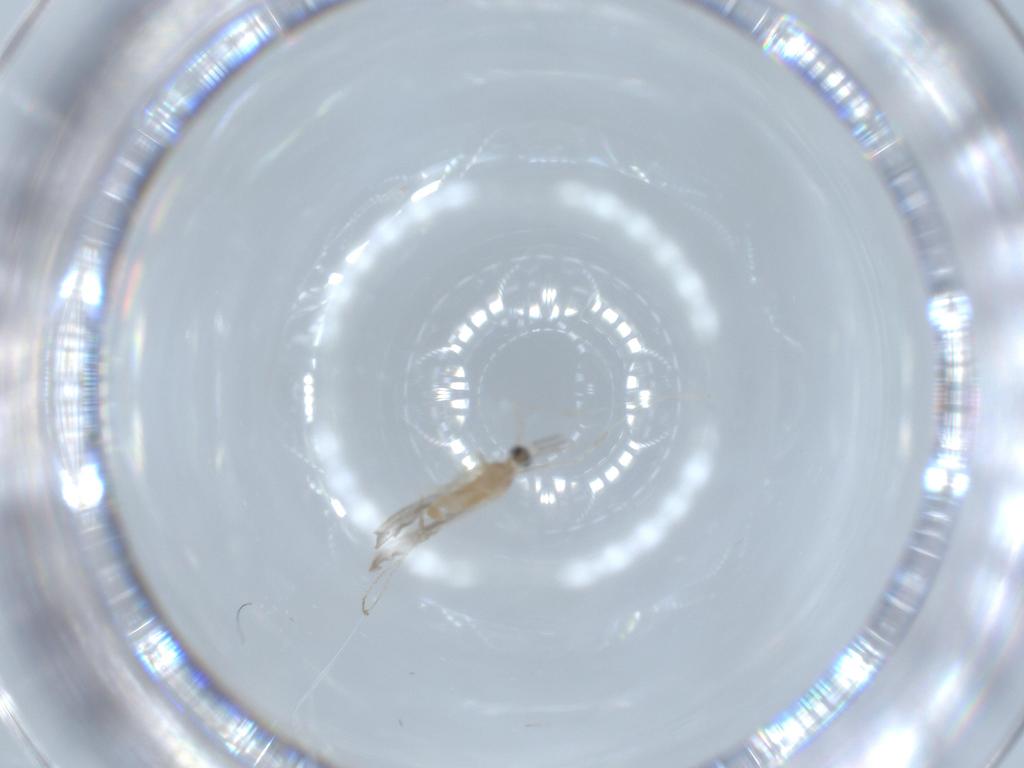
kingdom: Animalia
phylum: Arthropoda
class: Insecta
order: Diptera
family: Cecidomyiidae
